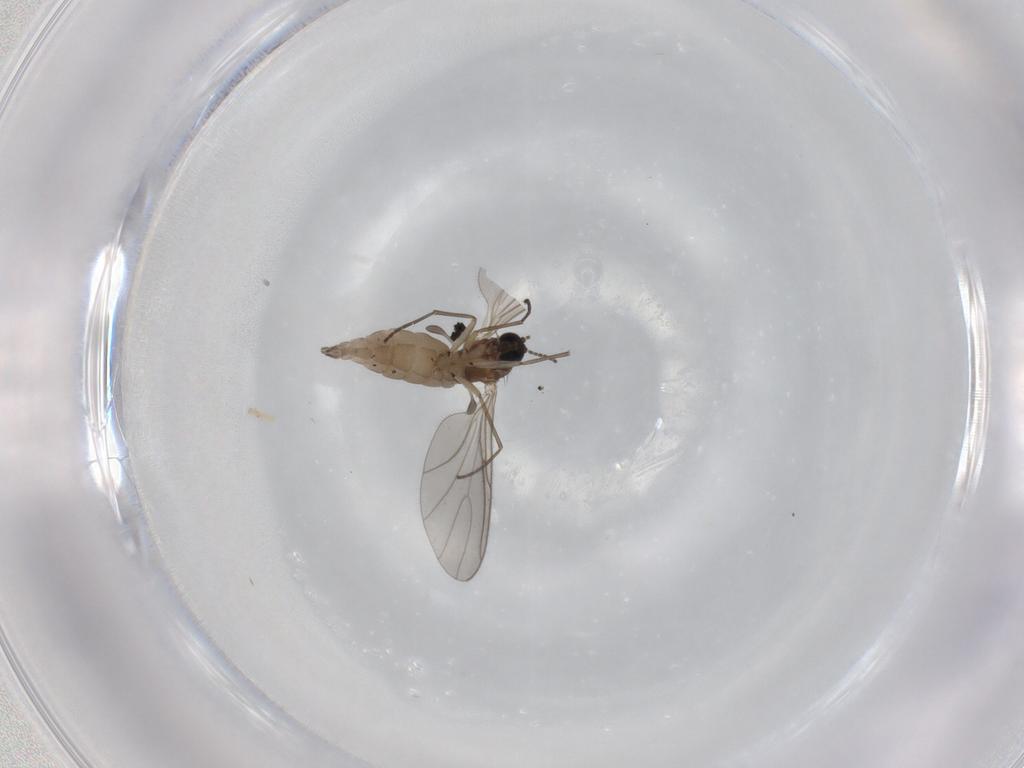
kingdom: Animalia
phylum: Arthropoda
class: Insecta
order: Diptera
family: Sciaridae
